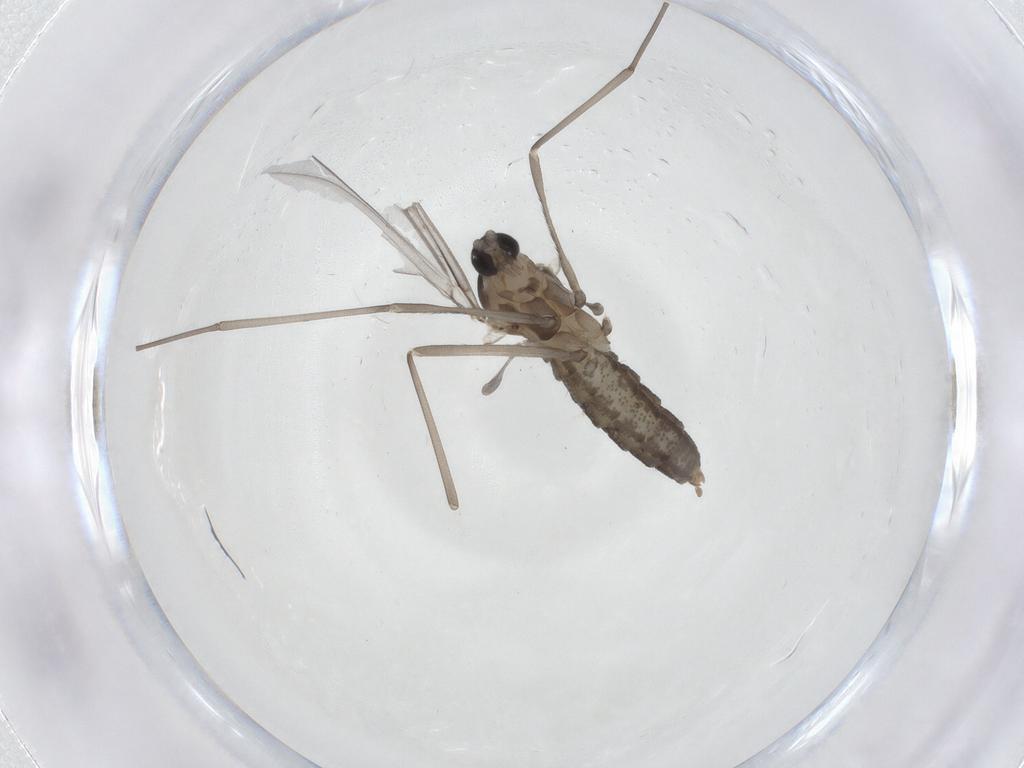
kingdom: Animalia
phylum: Arthropoda
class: Insecta
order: Diptera
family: Cecidomyiidae
